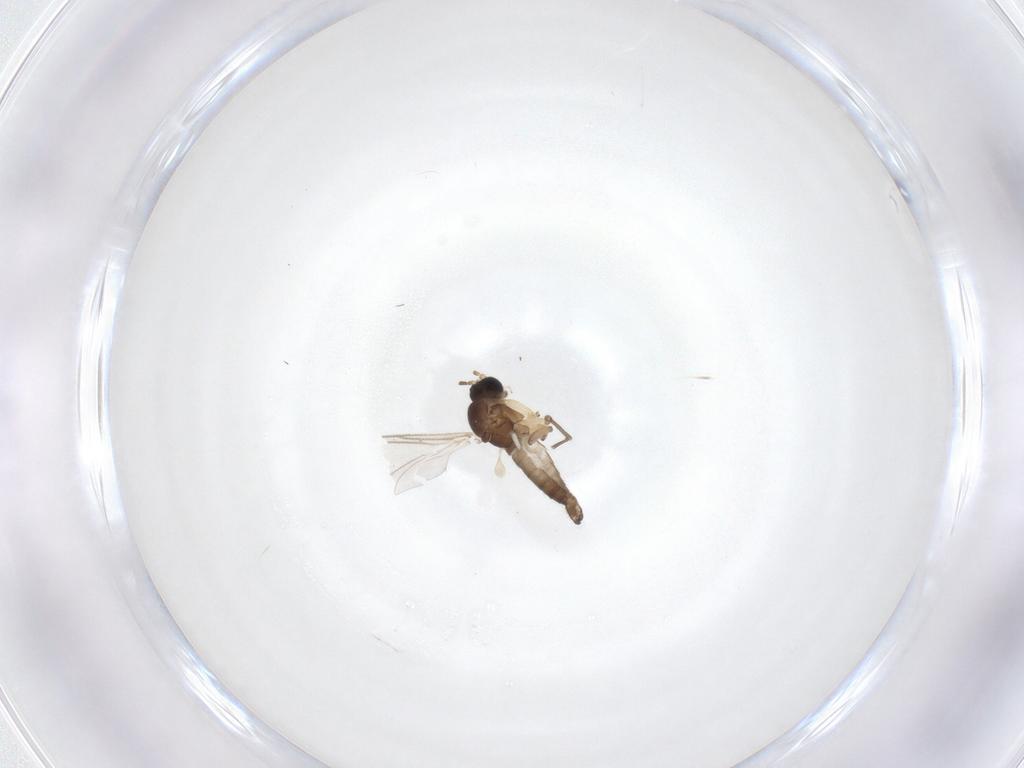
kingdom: Animalia
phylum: Arthropoda
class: Insecta
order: Diptera
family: Sciaridae
